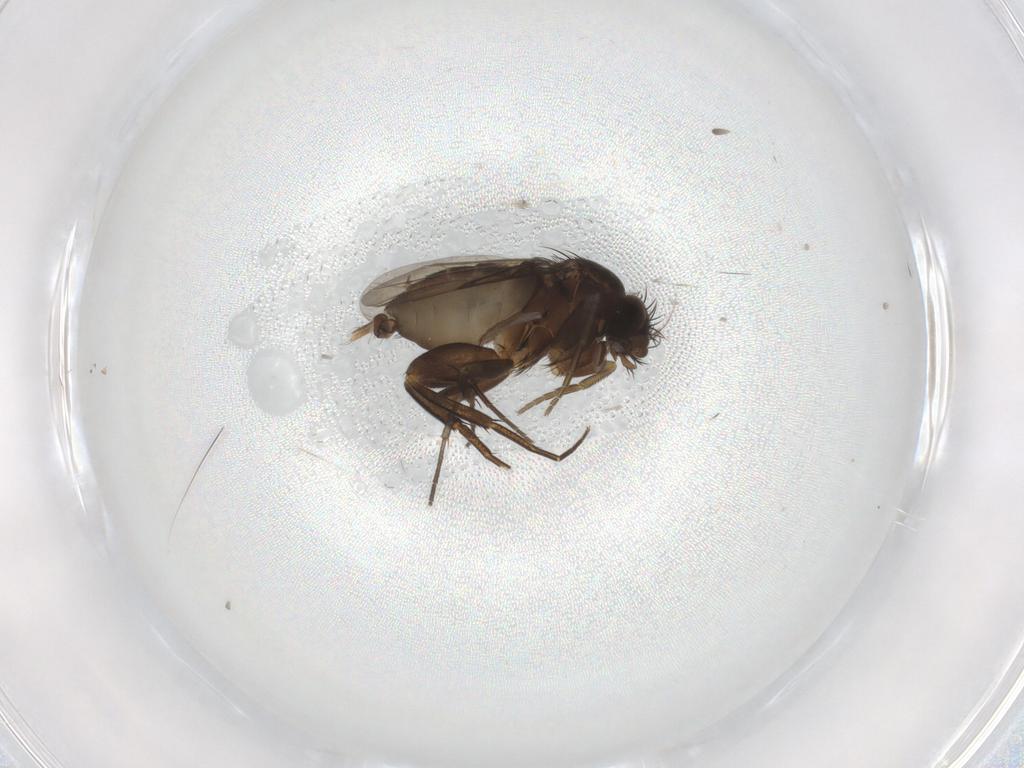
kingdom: Animalia
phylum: Arthropoda
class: Insecta
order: Diptera
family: Phoridae
